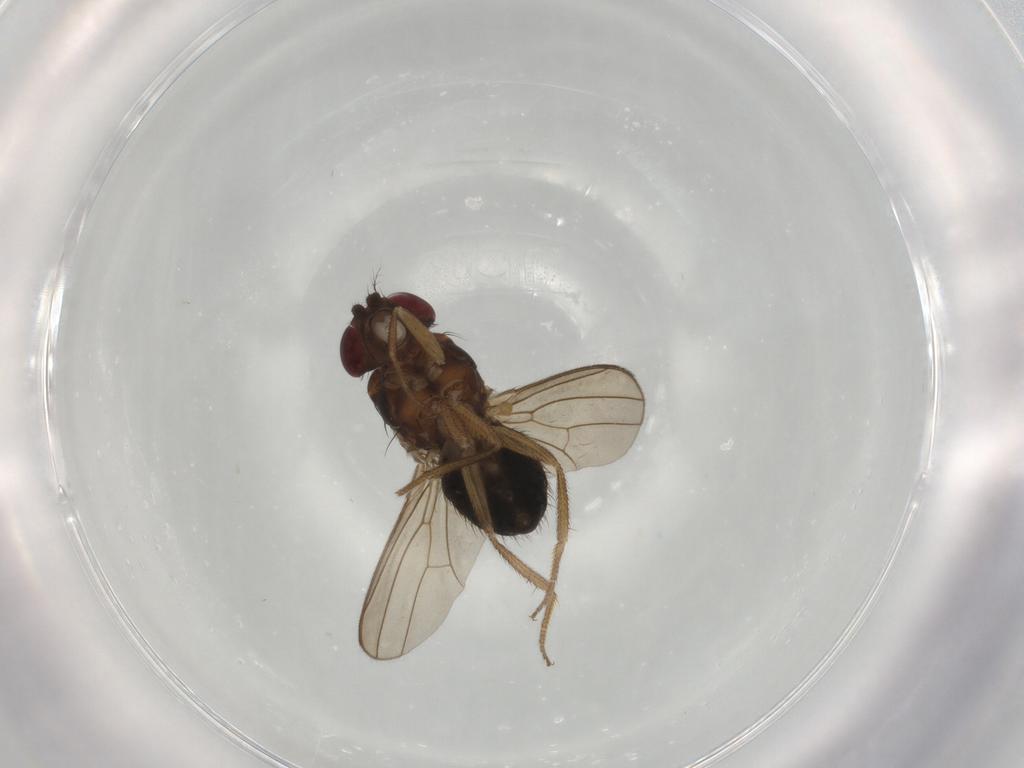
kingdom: Animalia
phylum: Arthropoda
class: Insecta
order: Diptera
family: Drosophilidae
